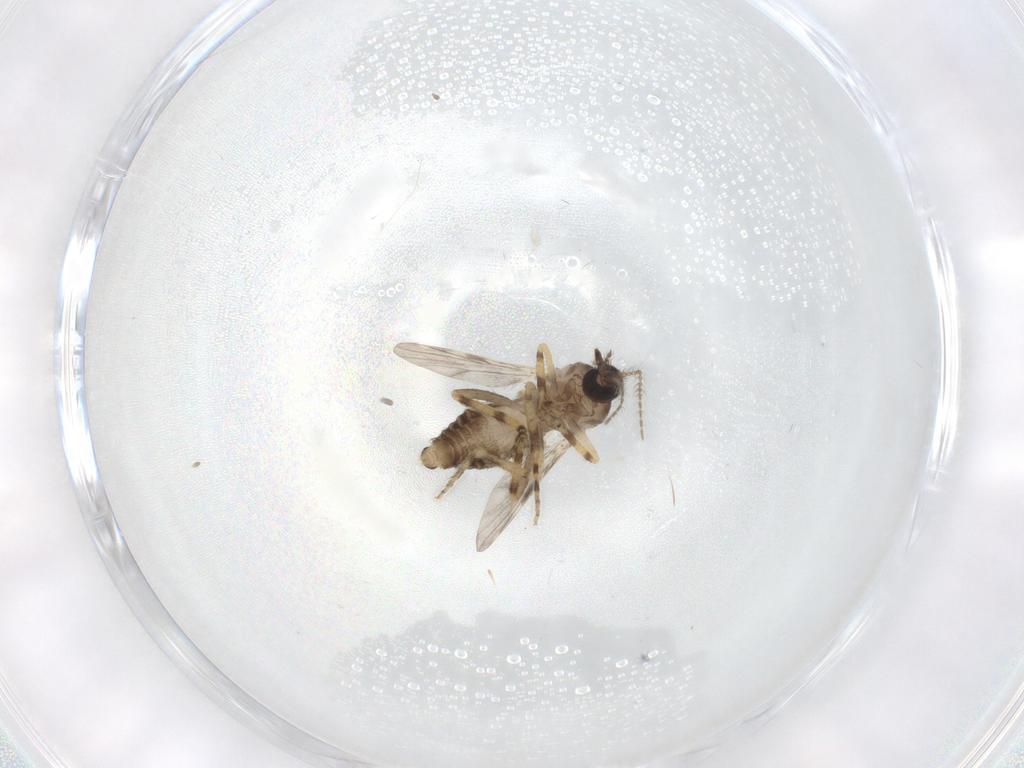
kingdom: Animalia
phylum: Arthropoda
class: Insecta
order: Diptera
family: Ceratopogonidae
